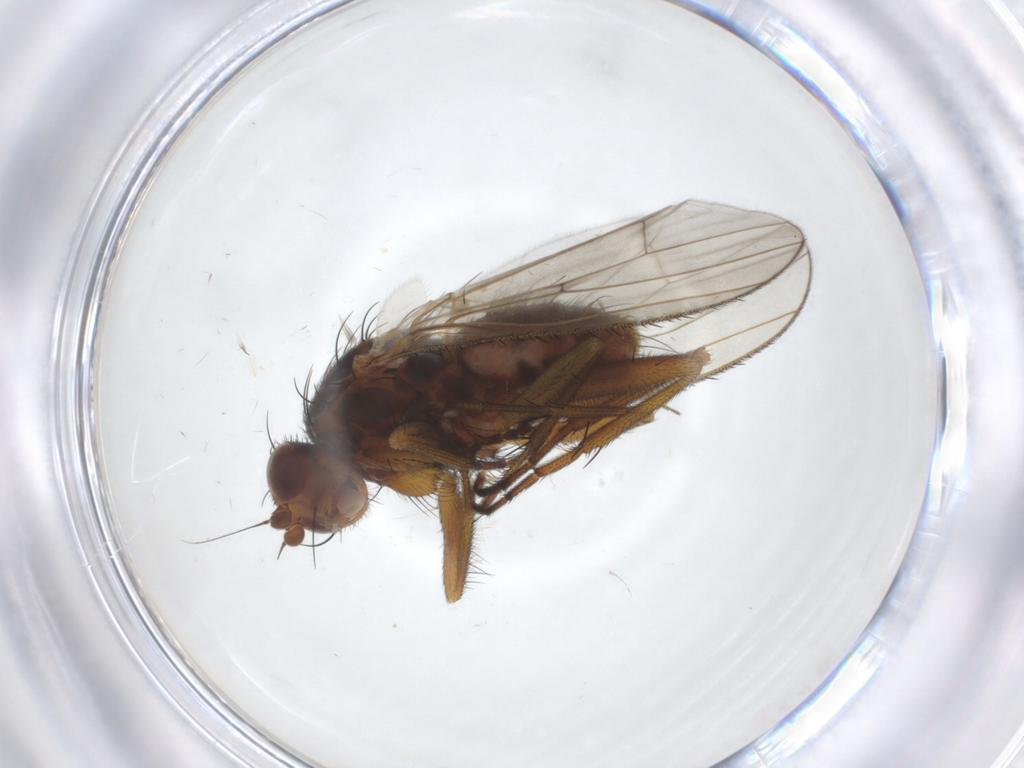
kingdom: Animalia
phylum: Arthropoda
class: Insecta
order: Diptera
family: Heleomyzidae
